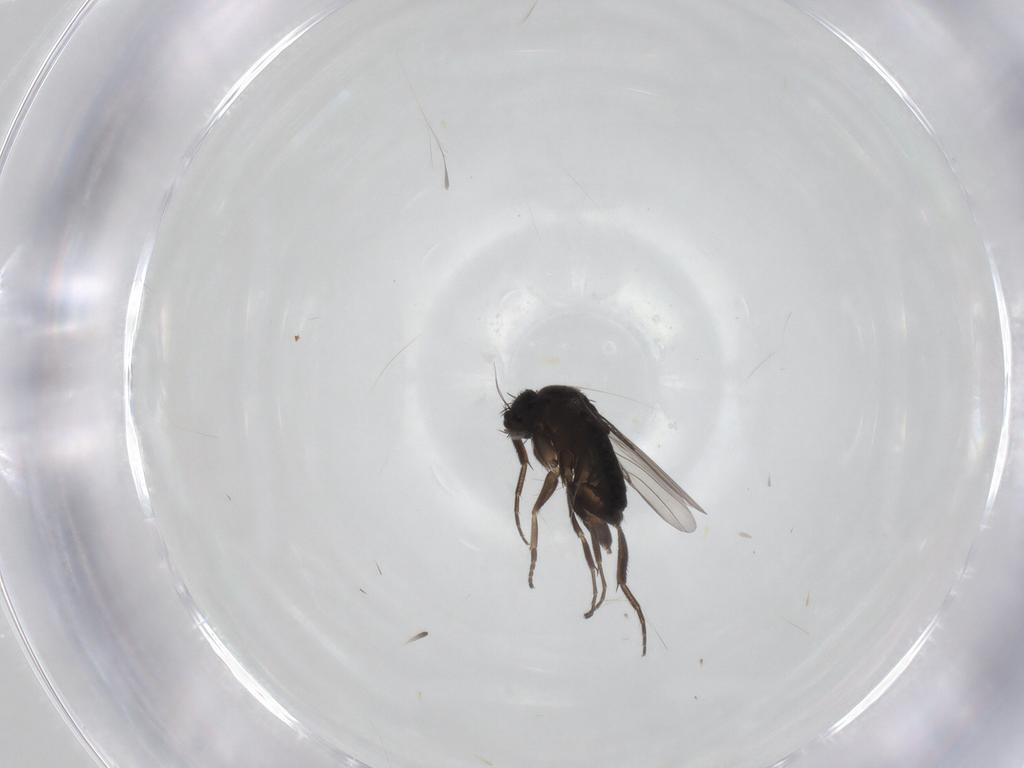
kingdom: Animalia
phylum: Arthropoda
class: Insecta
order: Diptera
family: Phoridae
